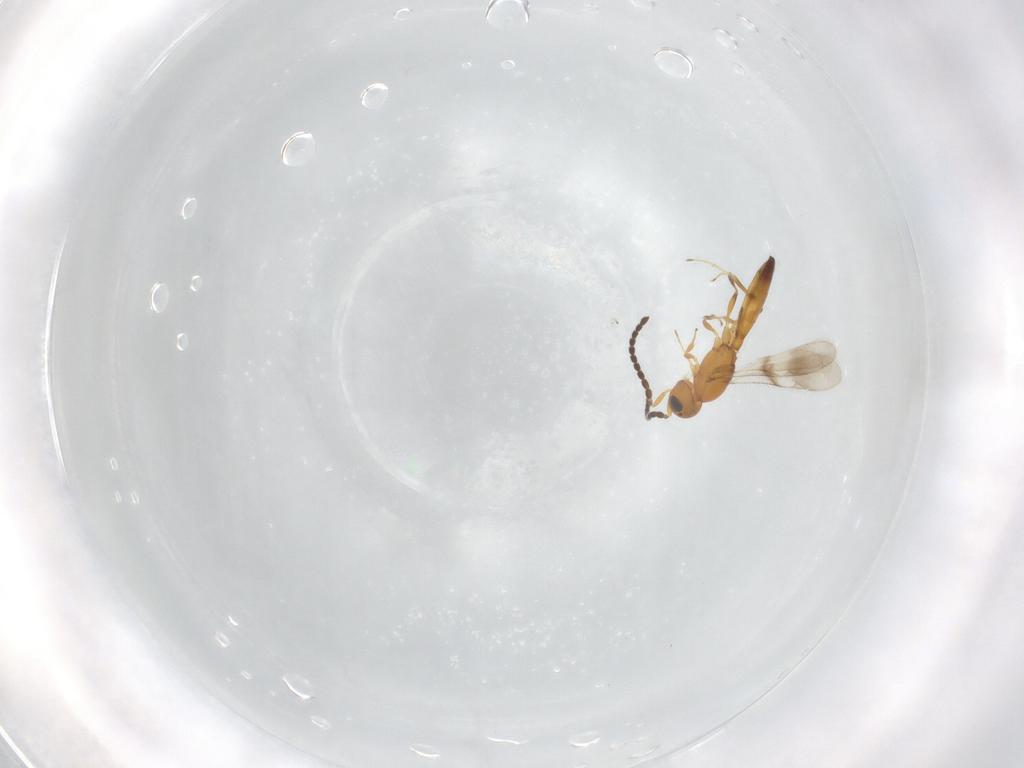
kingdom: Animalia
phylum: Arthropoda
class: Insecta
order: Hymenoptera
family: Scelionidae
